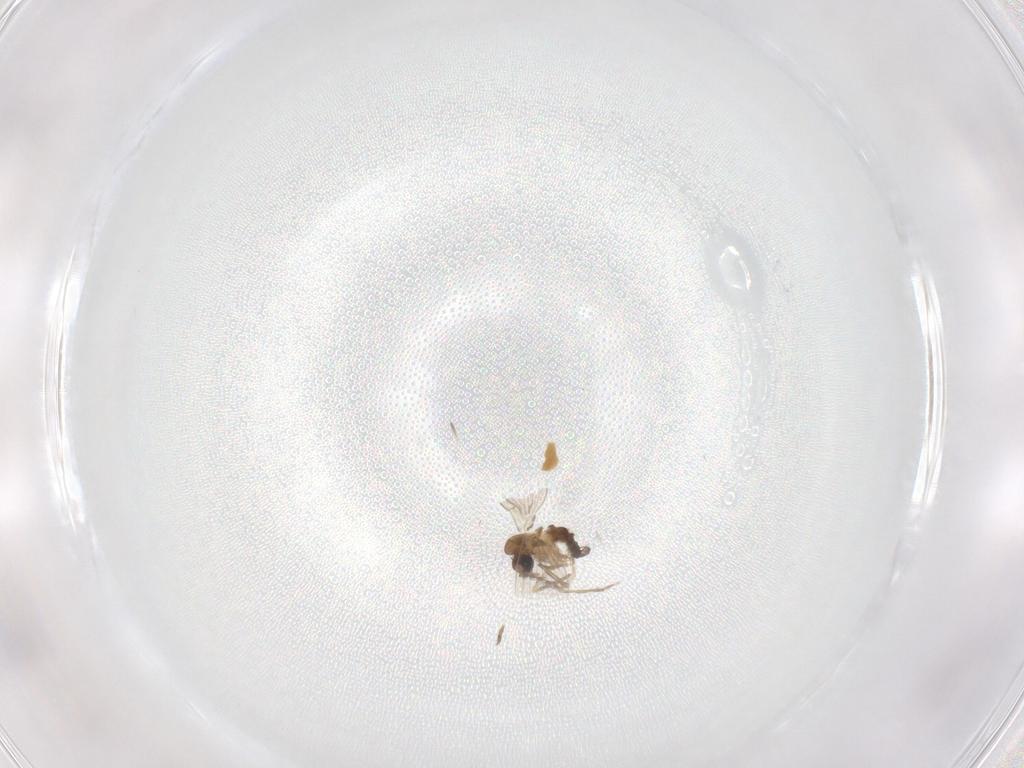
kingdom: Animalia
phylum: Arthropoda
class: Insecta
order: Diptera
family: Psychodidae
